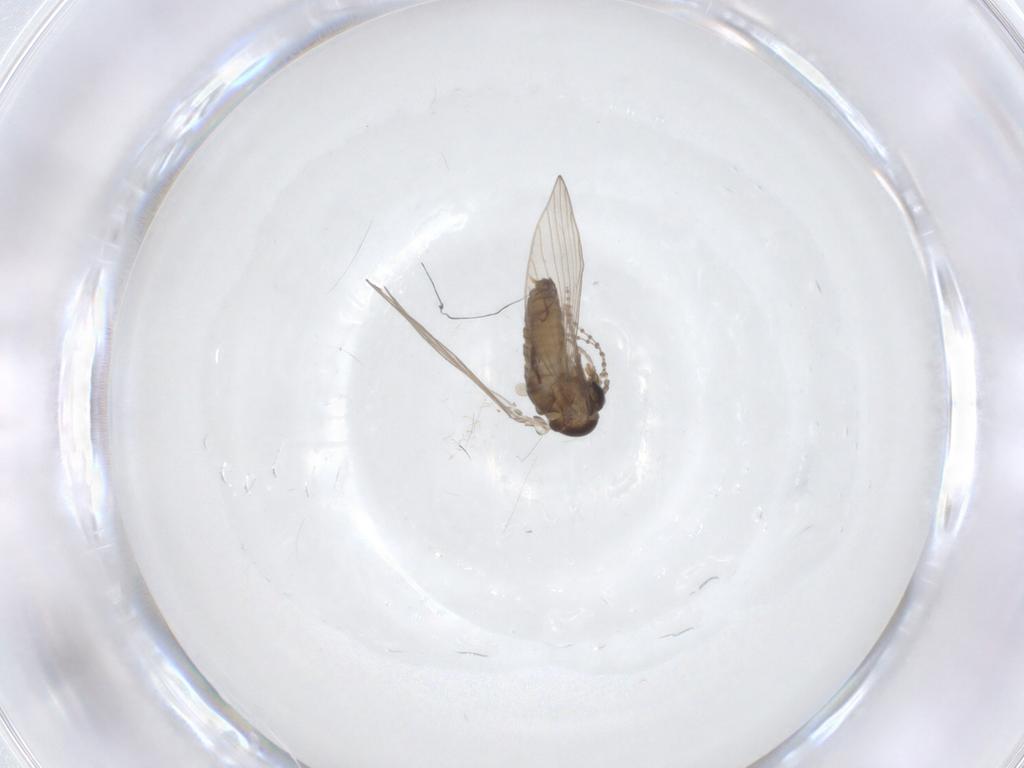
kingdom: Animalia
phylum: Arthropoda
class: Insecta
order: Diptera
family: Psychodidae
